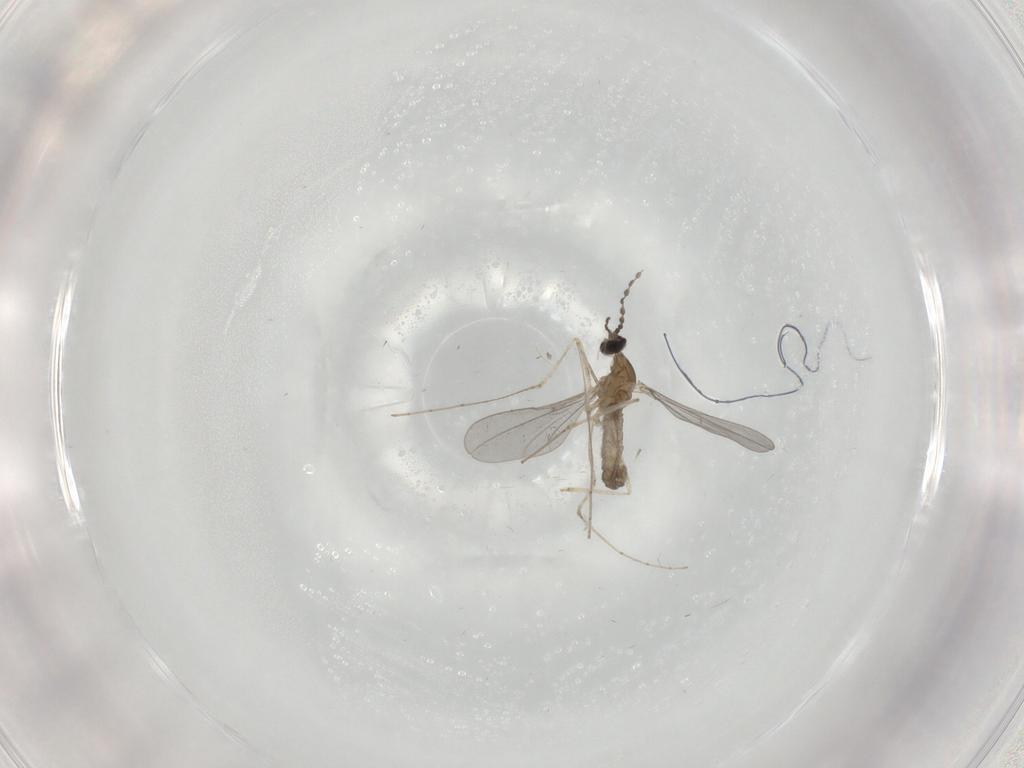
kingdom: Animalia
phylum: Arthropoda
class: Insecta
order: Diptera
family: Cecidomyiidae
